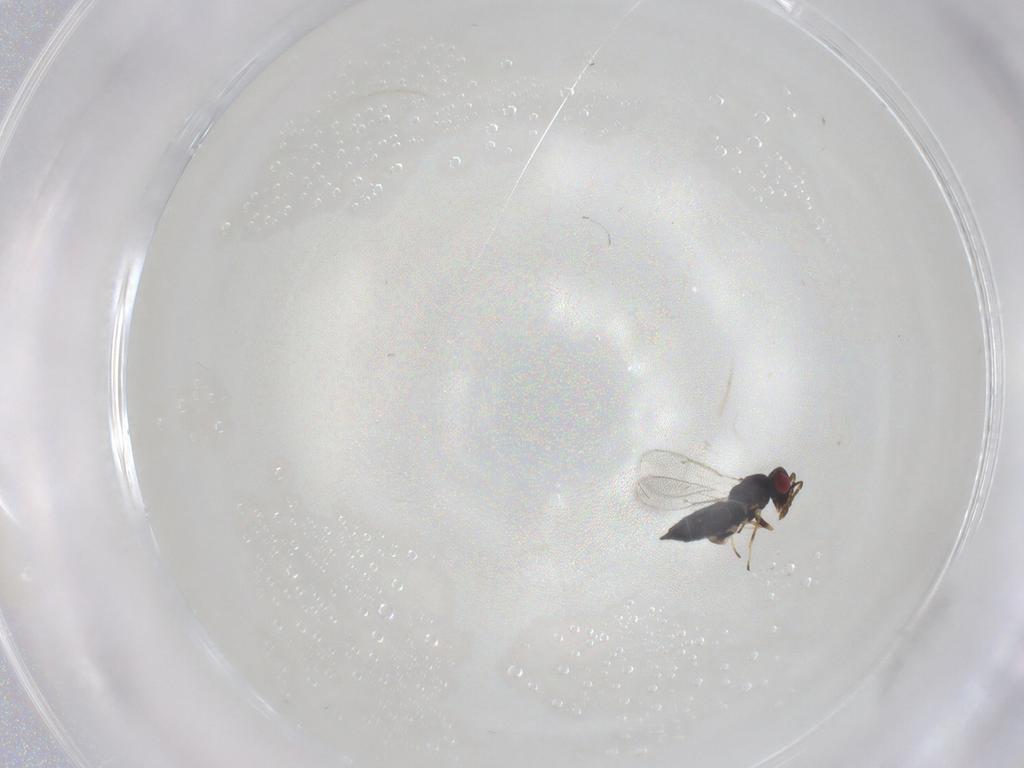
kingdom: Animalia
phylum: Arthropoda
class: Insecta
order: Hymenoptera
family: Eulophidae
